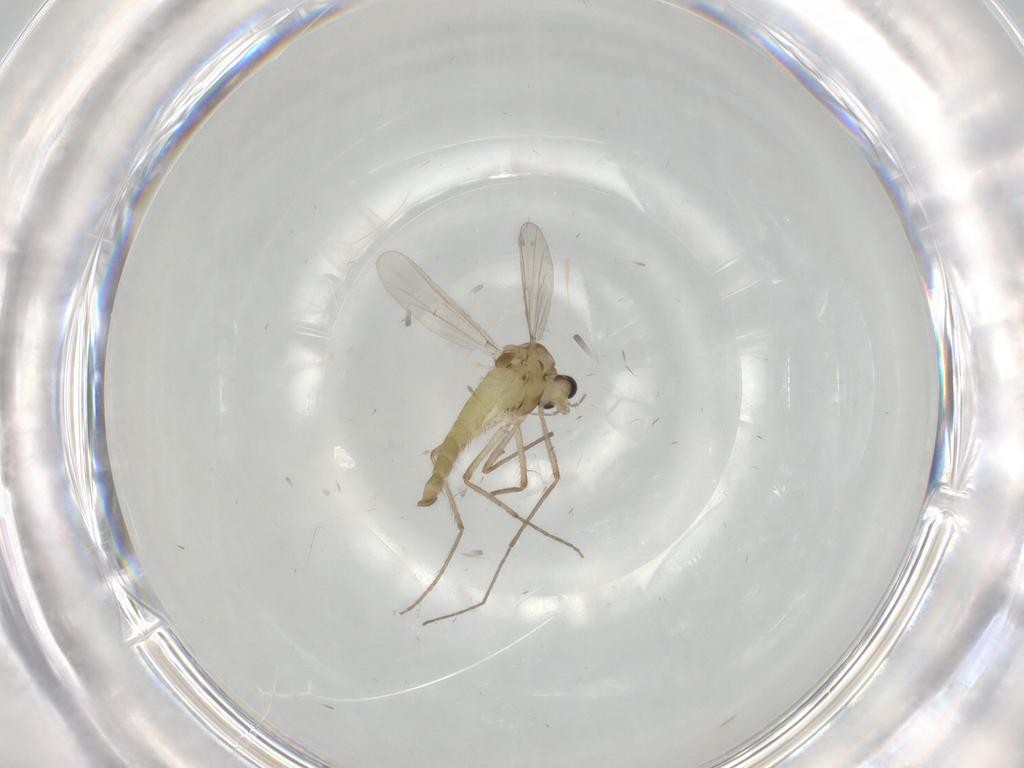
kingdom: Animalia
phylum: Arthropoda
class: Insecta
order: Diptera
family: Chironomidae
